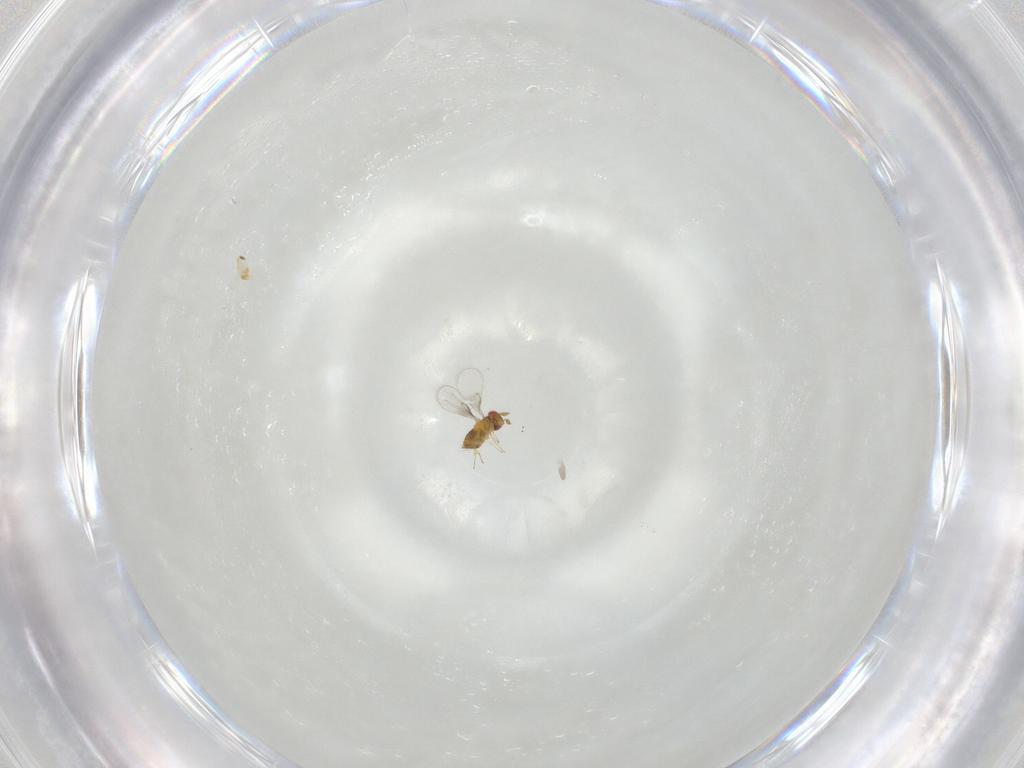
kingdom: Animalia
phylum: Arthropoda
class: Insecta
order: Hymenoptera
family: Trichogrammatidae
